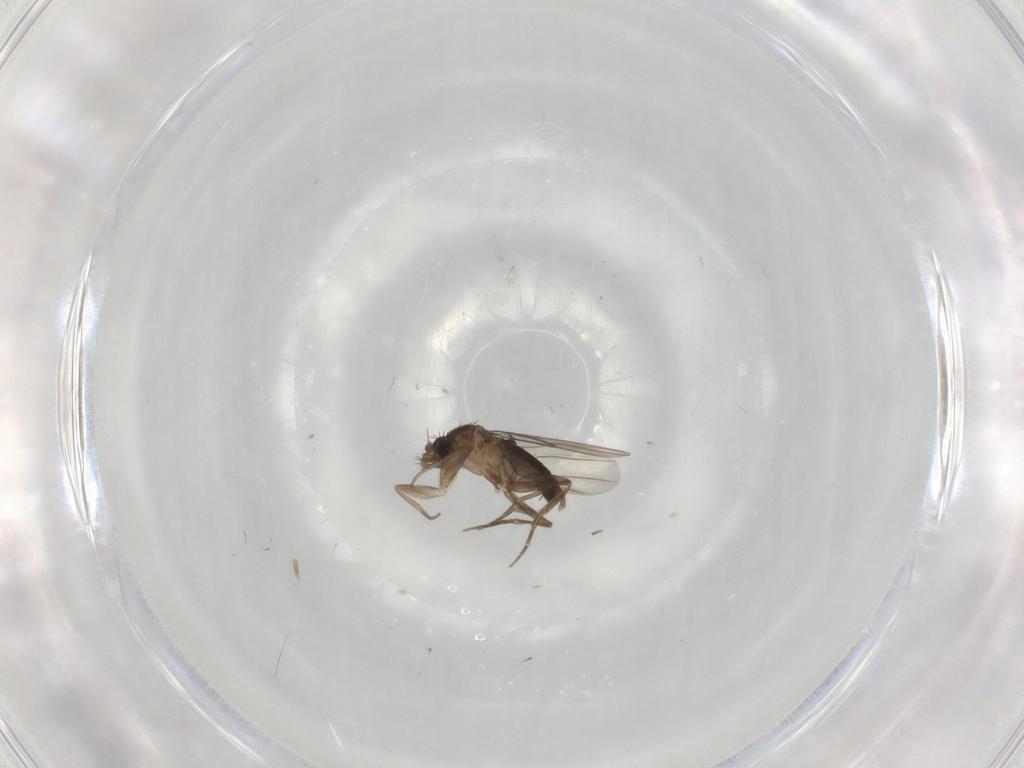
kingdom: Animalia
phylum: Arthropoda
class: Insecta
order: Diptera
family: Phoridae
